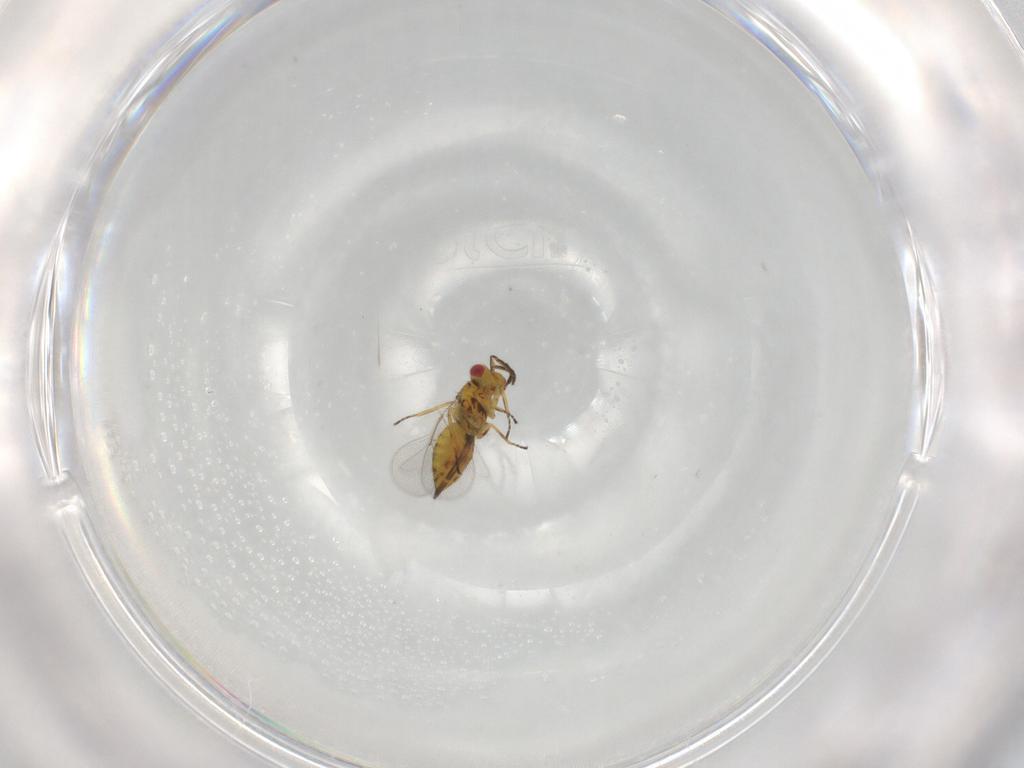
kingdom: Animalia
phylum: Arthropoda
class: Insecta
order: Hymenoptera
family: Eulophidae
